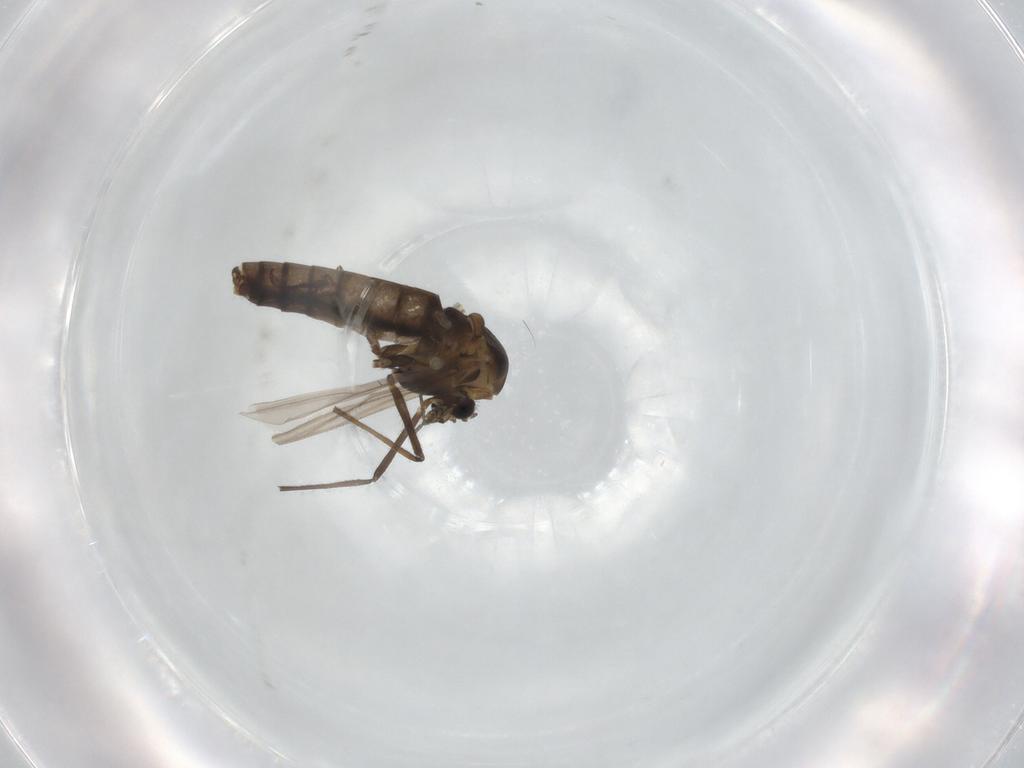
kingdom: Animalia
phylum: Arthropoda
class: Insecta
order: Diptera
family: Chironomidae
